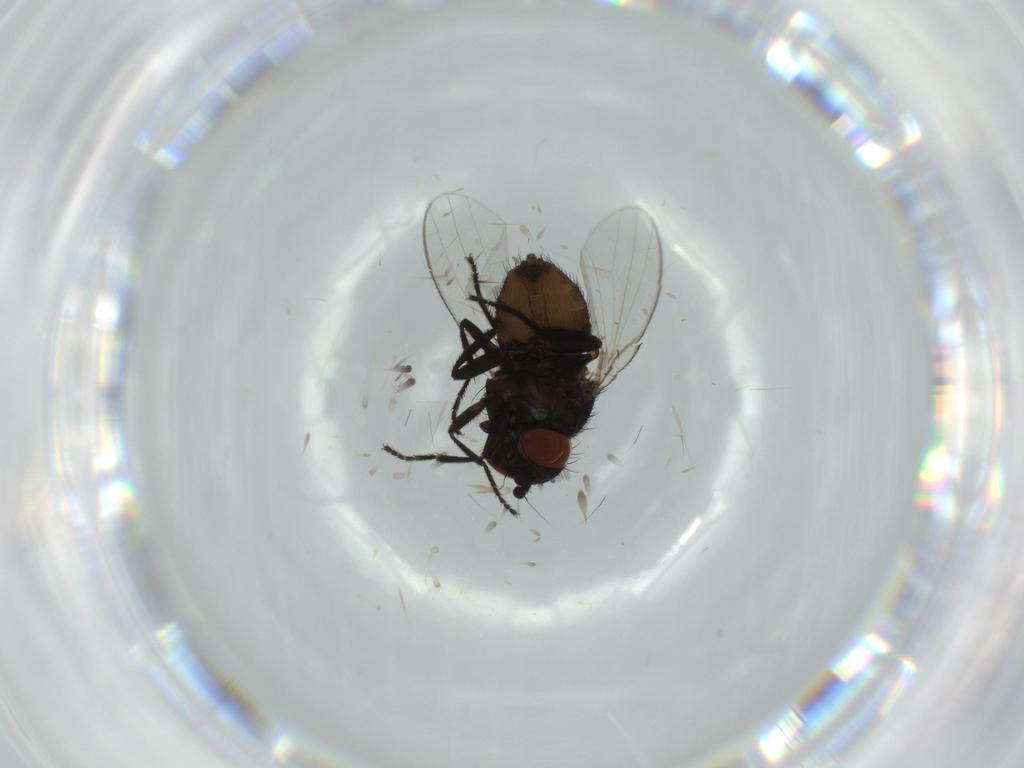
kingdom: Animalia
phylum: Arthropoda
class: Insecta
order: Diptera
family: Milichiidae
